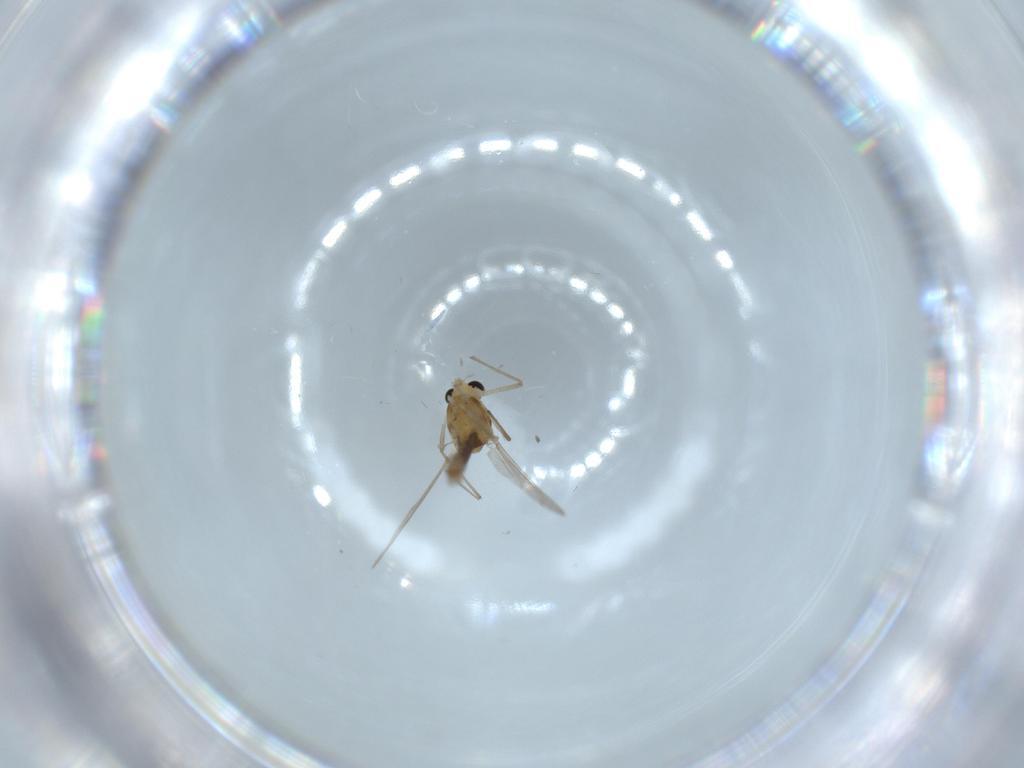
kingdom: Animalia
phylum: Arthropoda
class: Insecta
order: Diptera
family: Chironomidae
